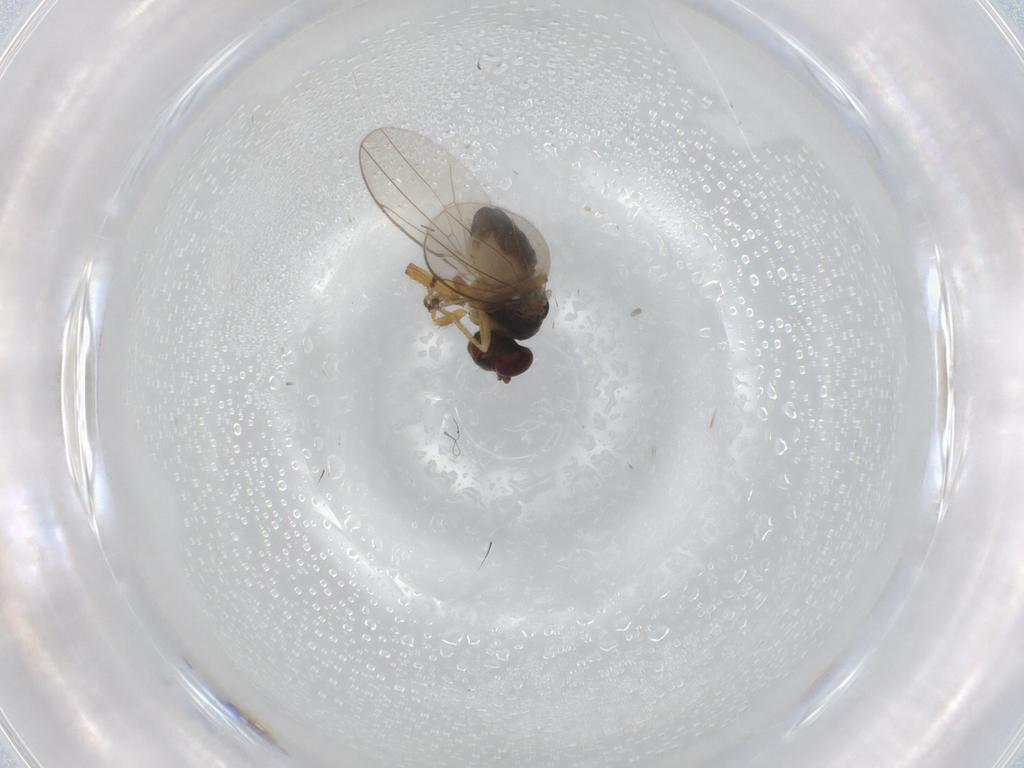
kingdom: Animalia
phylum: Arthropoda
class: Insecta
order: Diptera
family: Ephydridae
